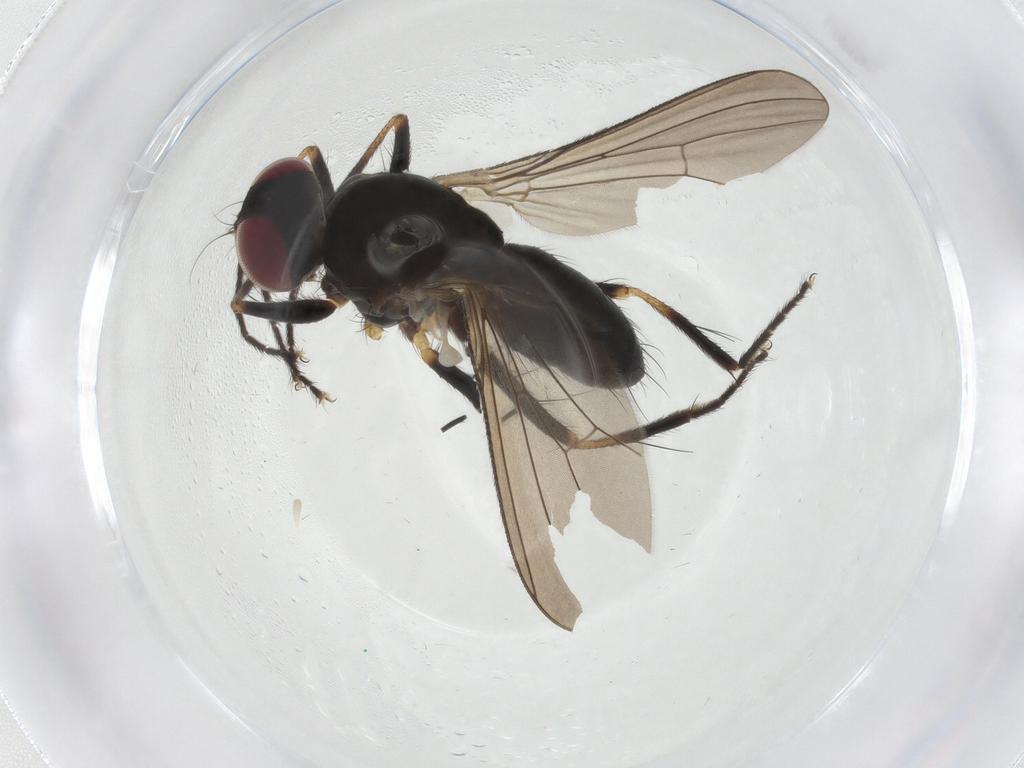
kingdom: Animalia
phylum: Arthropoda
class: Insecta
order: Diptera
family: Anthomyiidae
